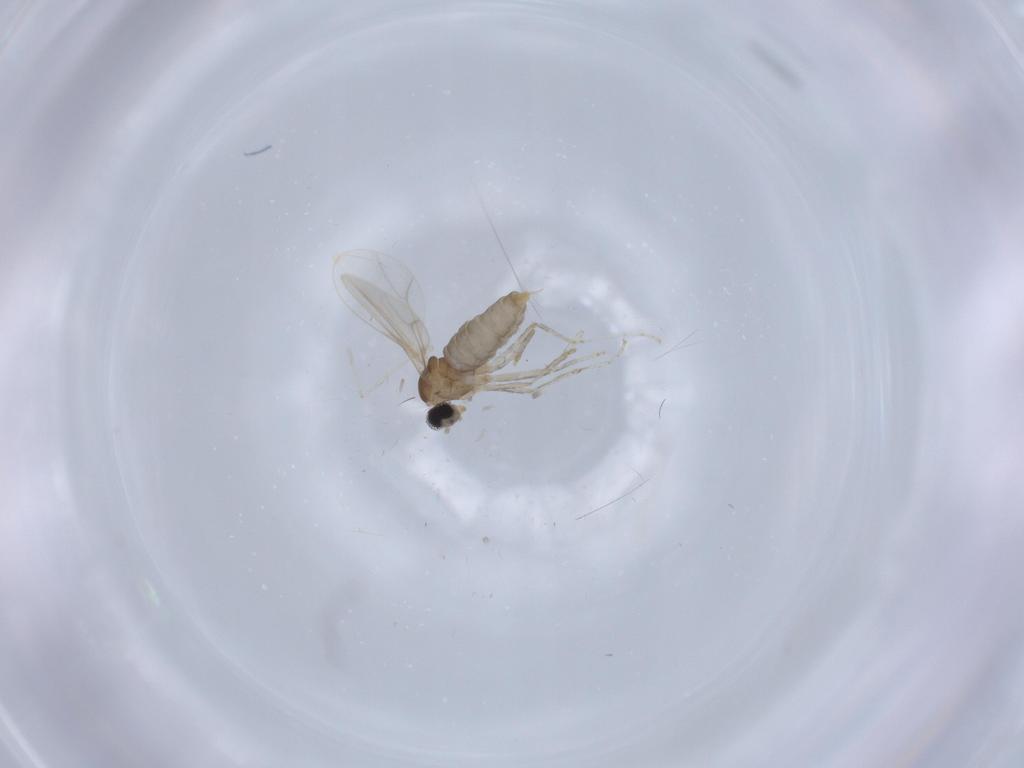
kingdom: Animalia
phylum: Arthropoda
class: Insecta
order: Diptera
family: Cecidomyiidae
